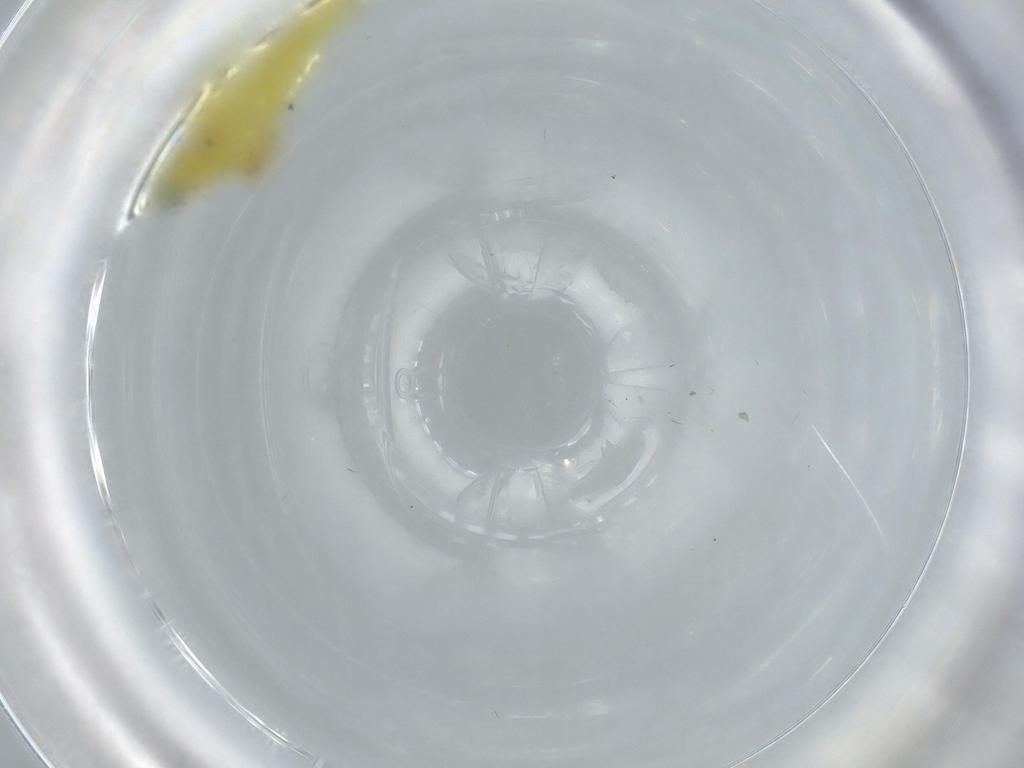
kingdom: Animalia
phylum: Arthropoda
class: Insecta
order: Hemiptera
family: Cicadellidae
